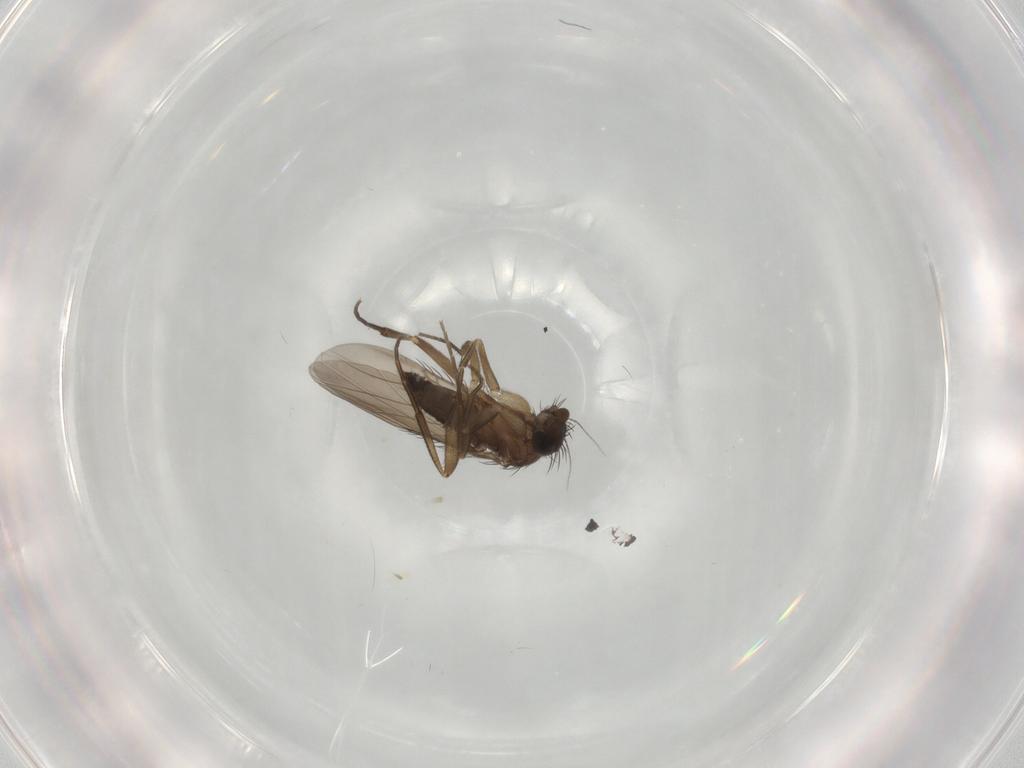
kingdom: Animalia
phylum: Arthropoda
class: Insecta
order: Diptera
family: Phoridae
